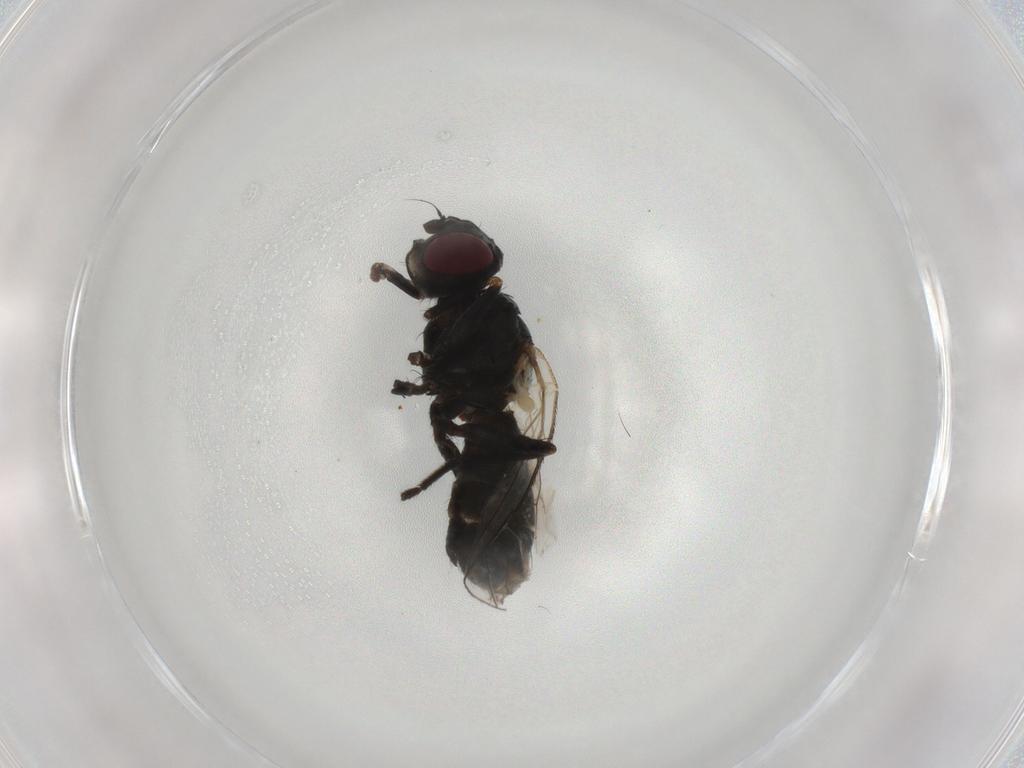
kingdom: Animalia
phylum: Arthropoda
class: Insecta
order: Diptera
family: Muscidae
